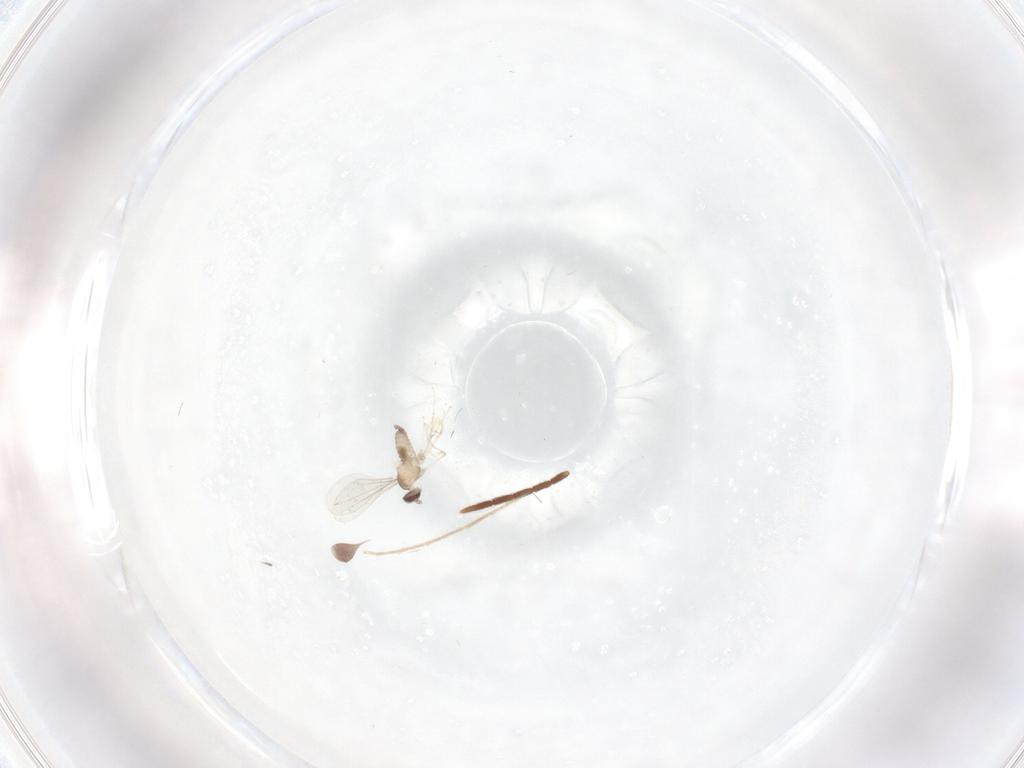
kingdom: Animalia
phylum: Arthropoda
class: Insecta
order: Diptera
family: Cecidomyiidae
